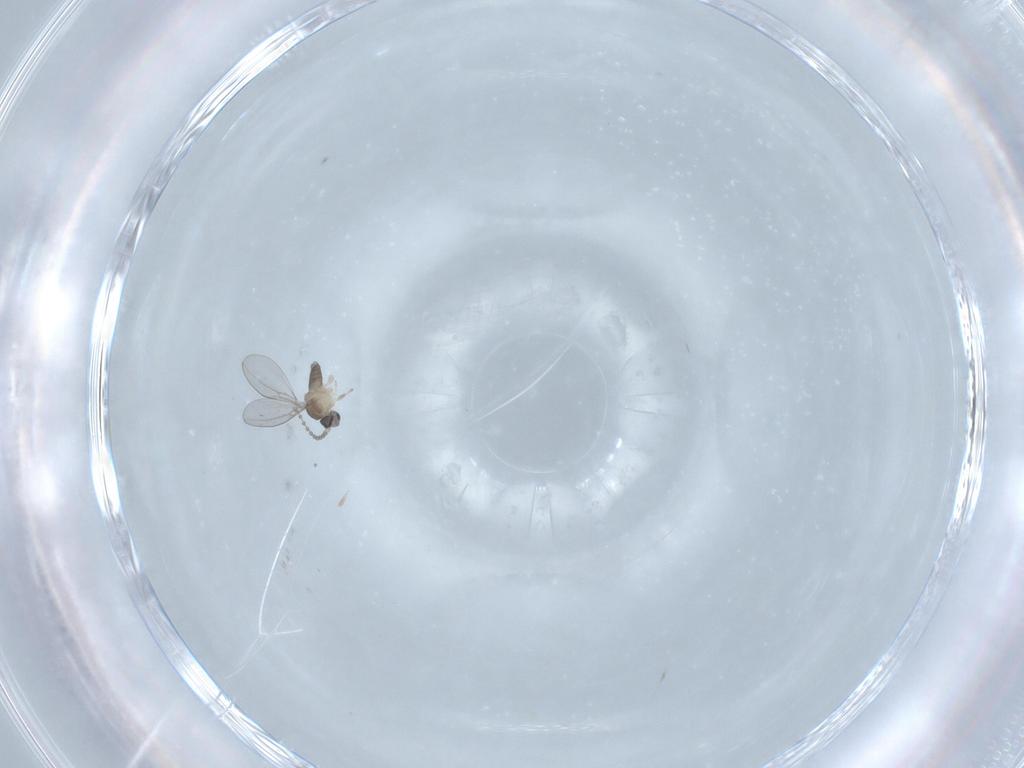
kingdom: Animalia
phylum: Arthropoda
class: Insecta
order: Diptera
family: Cecidomyiidae
